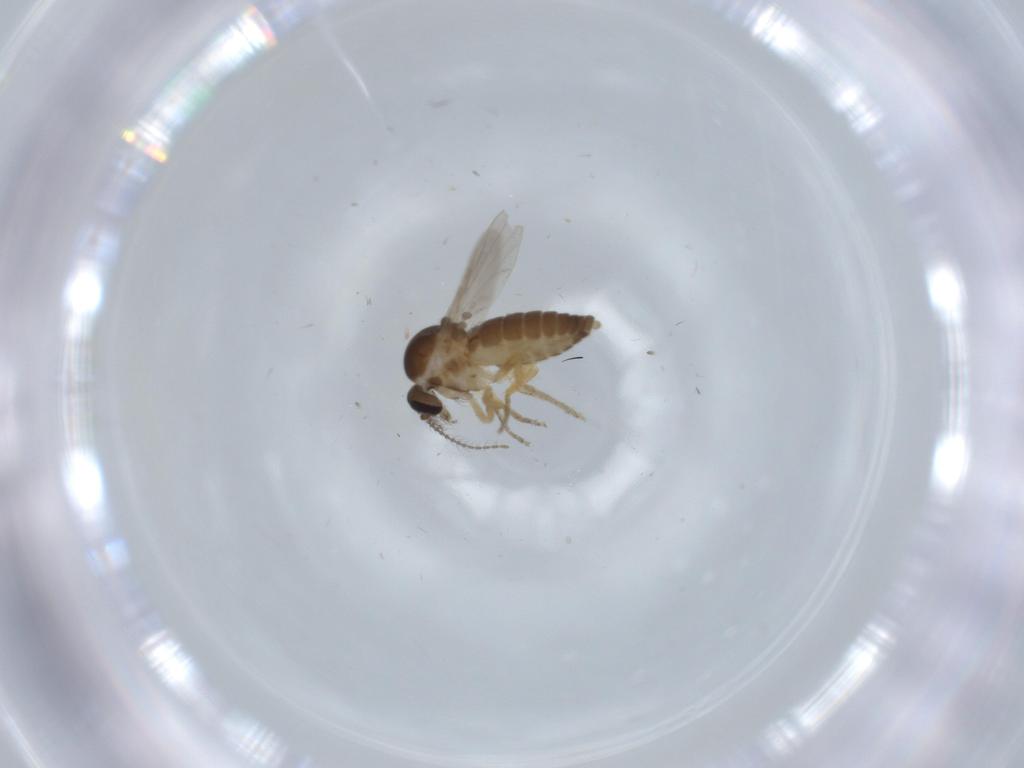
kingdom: Animalia
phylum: Arthropoda
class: Insecta
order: Diptera
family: Ceratopogonidae
